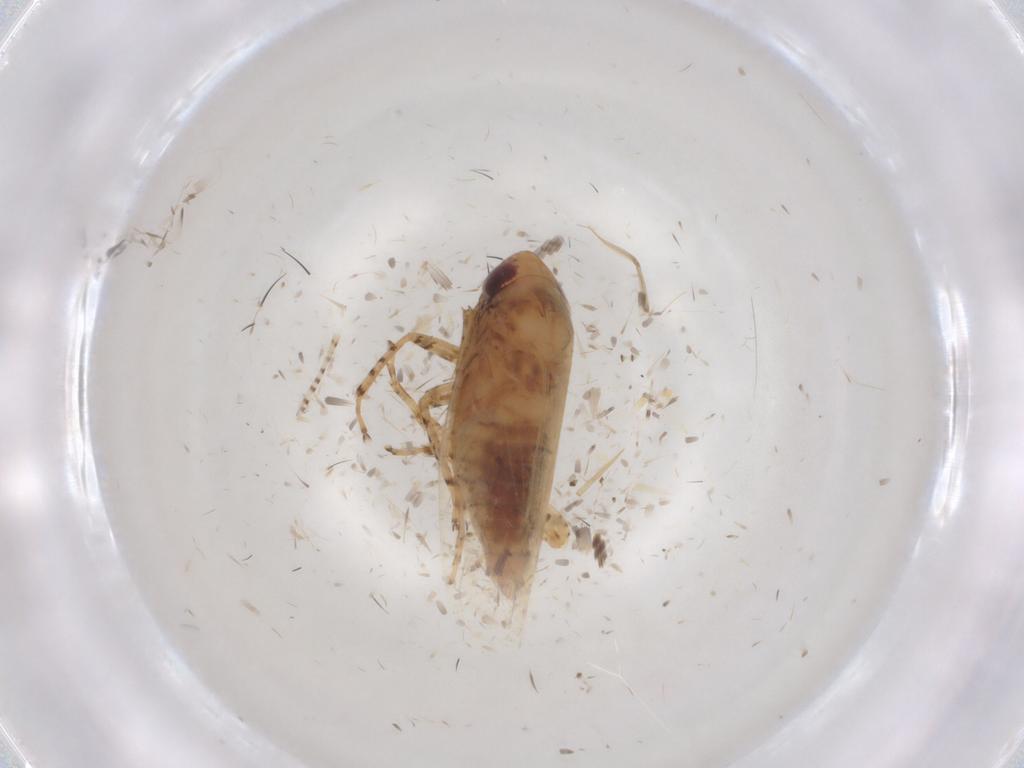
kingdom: Animalia
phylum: Arthropoda
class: Insecta
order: Hemiptera
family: Cicadellidae
